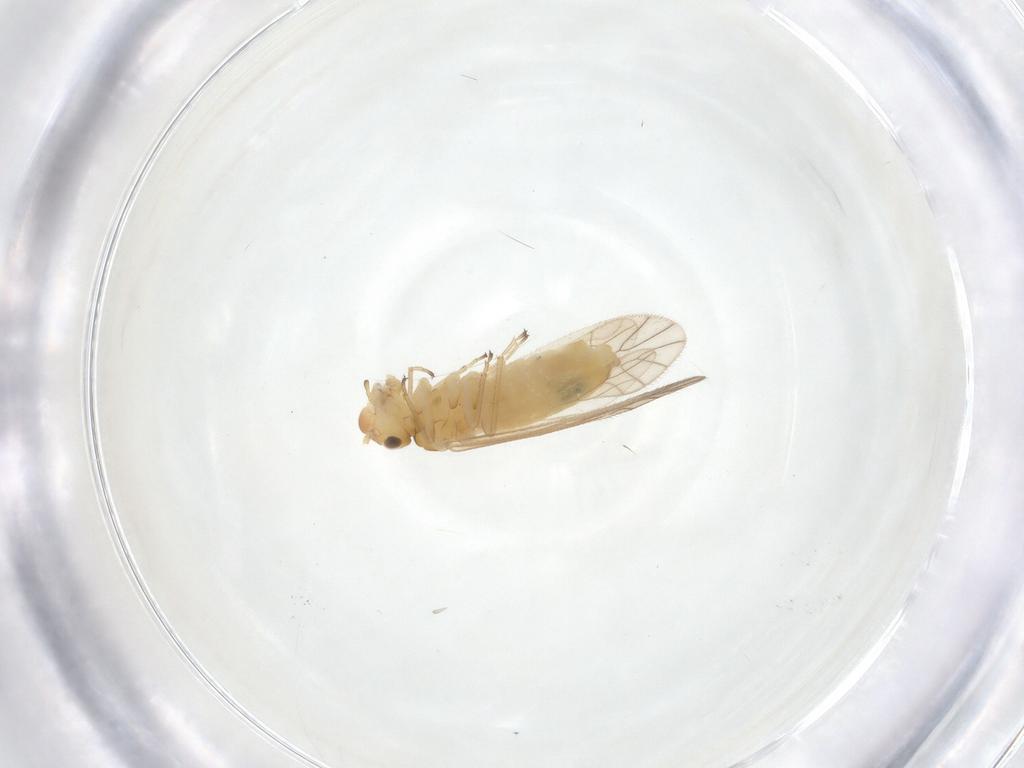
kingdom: Animalia
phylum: Arthropoda
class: Insecta
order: Psocodea
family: Caeciliusidae
